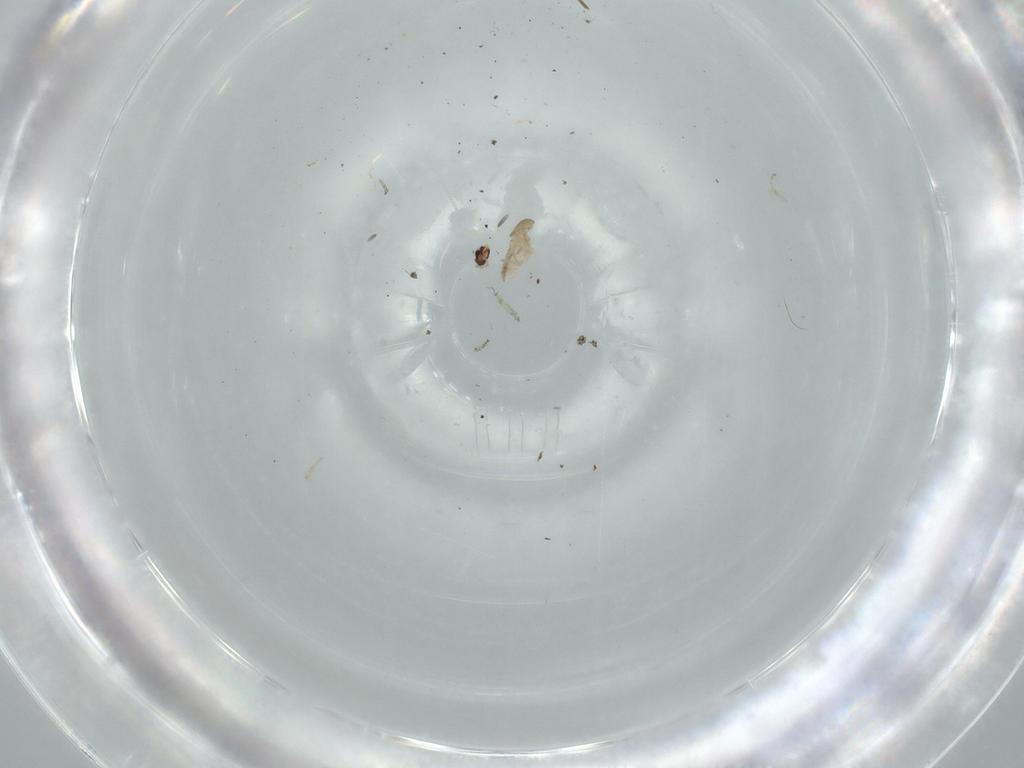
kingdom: Animalia
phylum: Arthropoda
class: Insecta
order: Diptera
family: Cecidomyiidae
